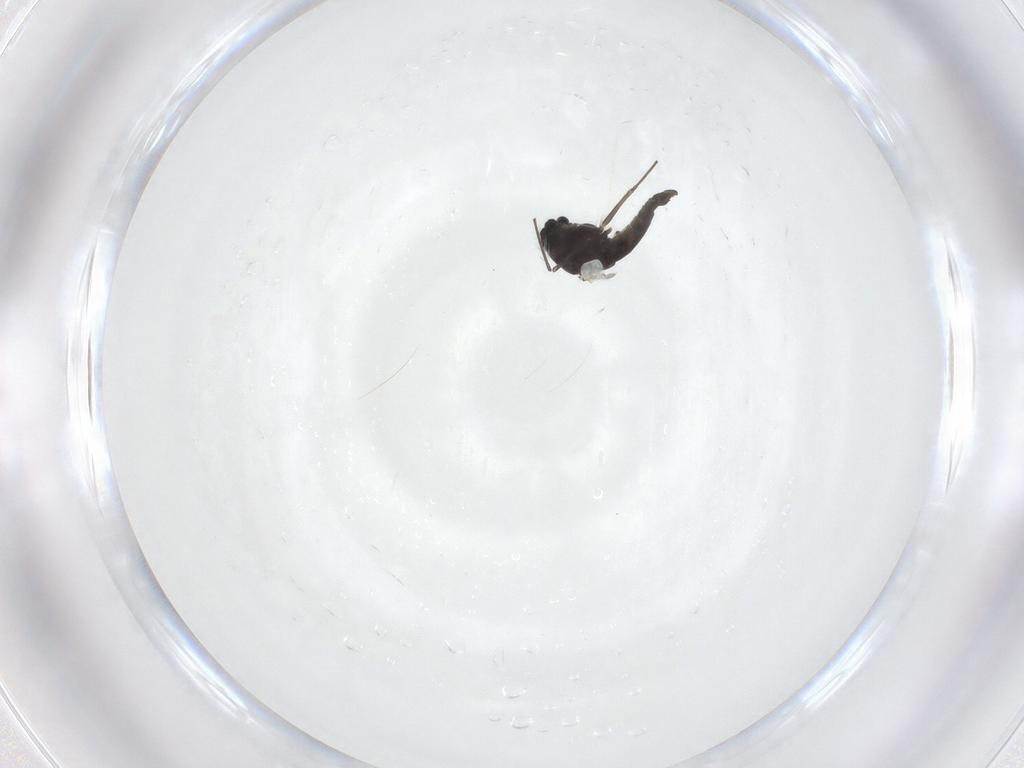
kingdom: Animalia
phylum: Arthropoda
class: Insecta
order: Diptera
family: Chironomidae
